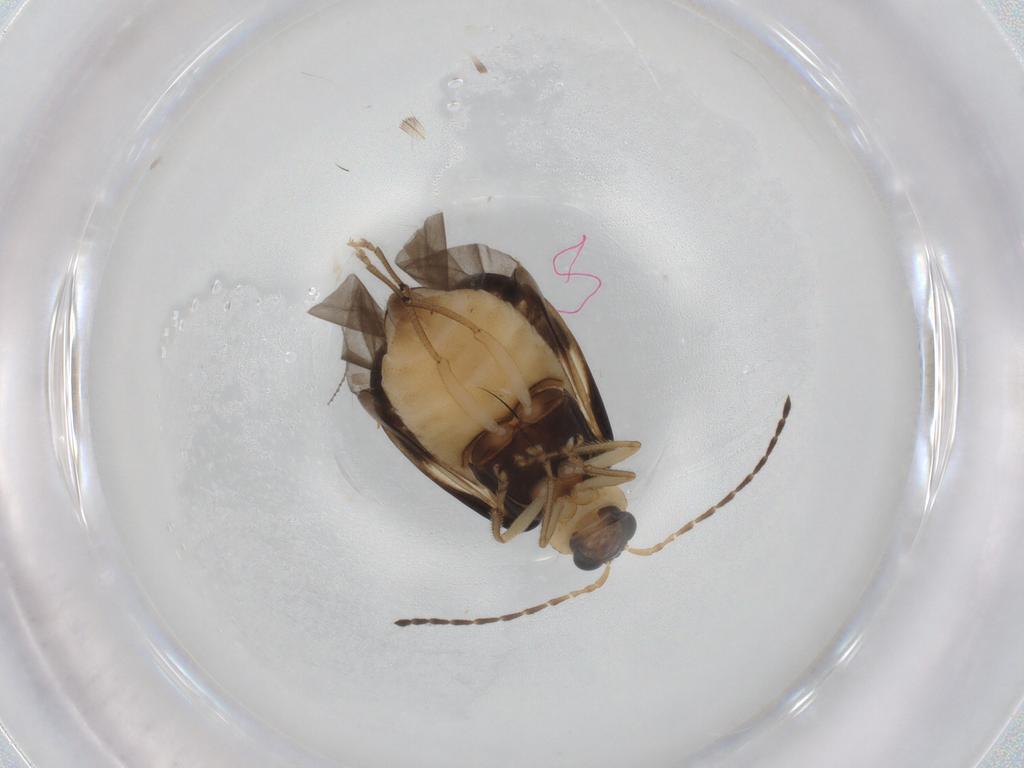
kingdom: Animalia
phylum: Arthropoda
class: Insecta
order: Coleoptera
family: Chrysomelidae
